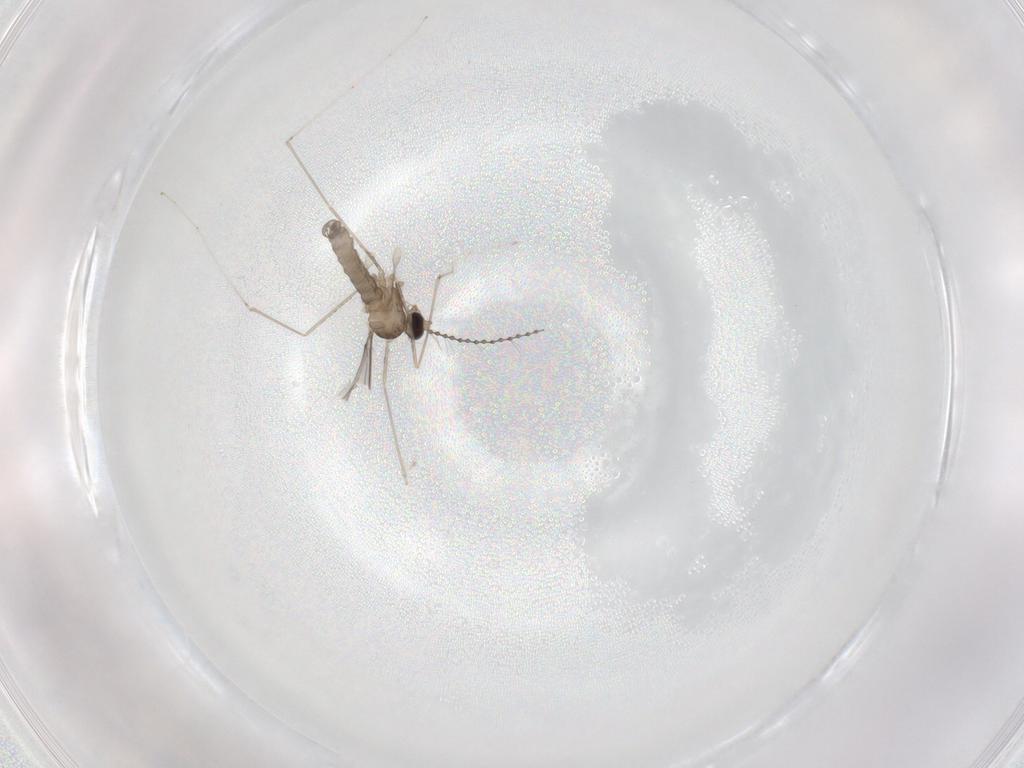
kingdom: Animalia
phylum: Arthropoda
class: Insecta
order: Diptera
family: Cecidomyiidae
